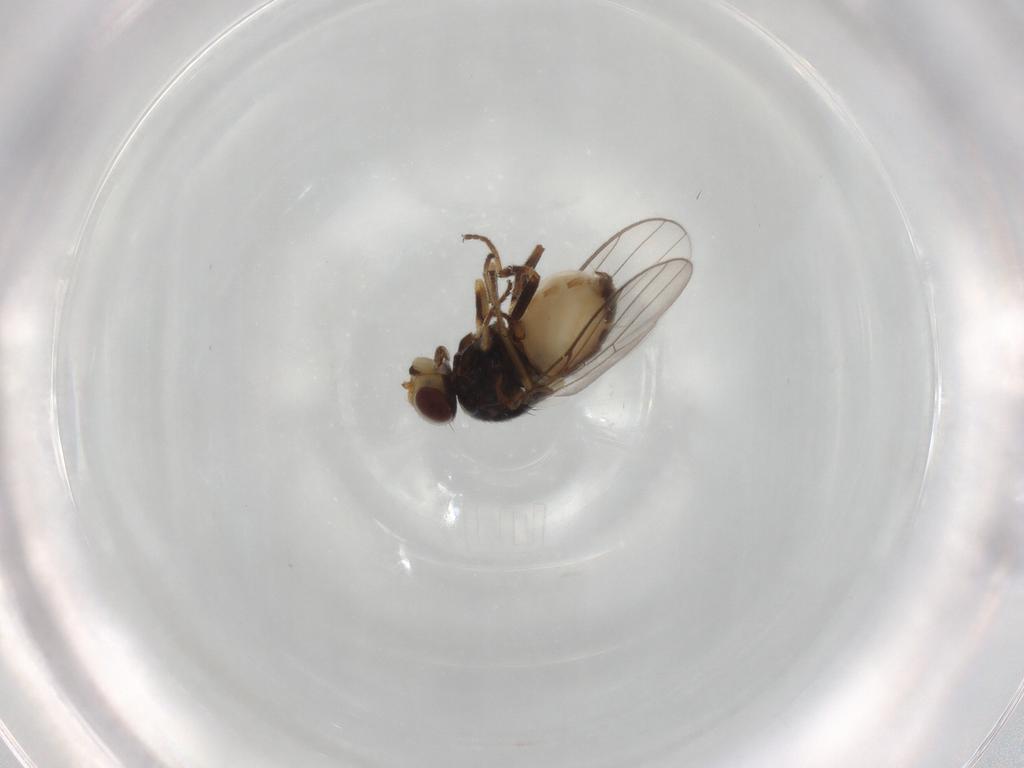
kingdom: Animalia
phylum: Arthropoda
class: Insecta
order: Diptera
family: Chloropidae
